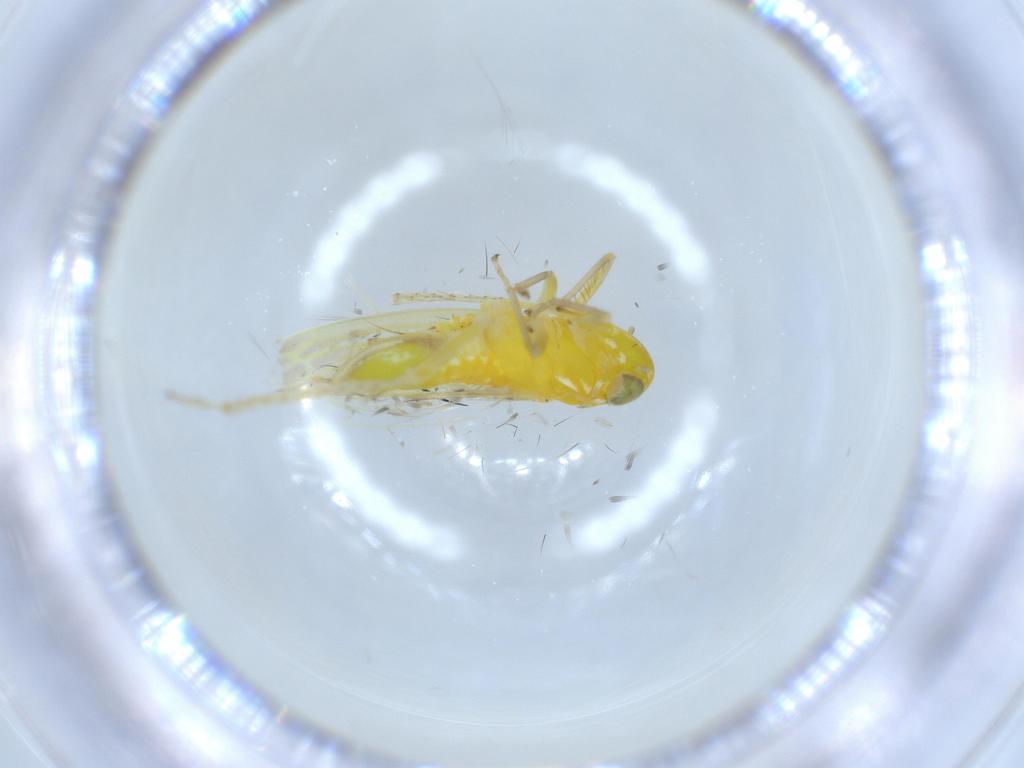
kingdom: Animalia
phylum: Arthropoda
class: Insecta
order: Hemiptera
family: Cicadellidae
